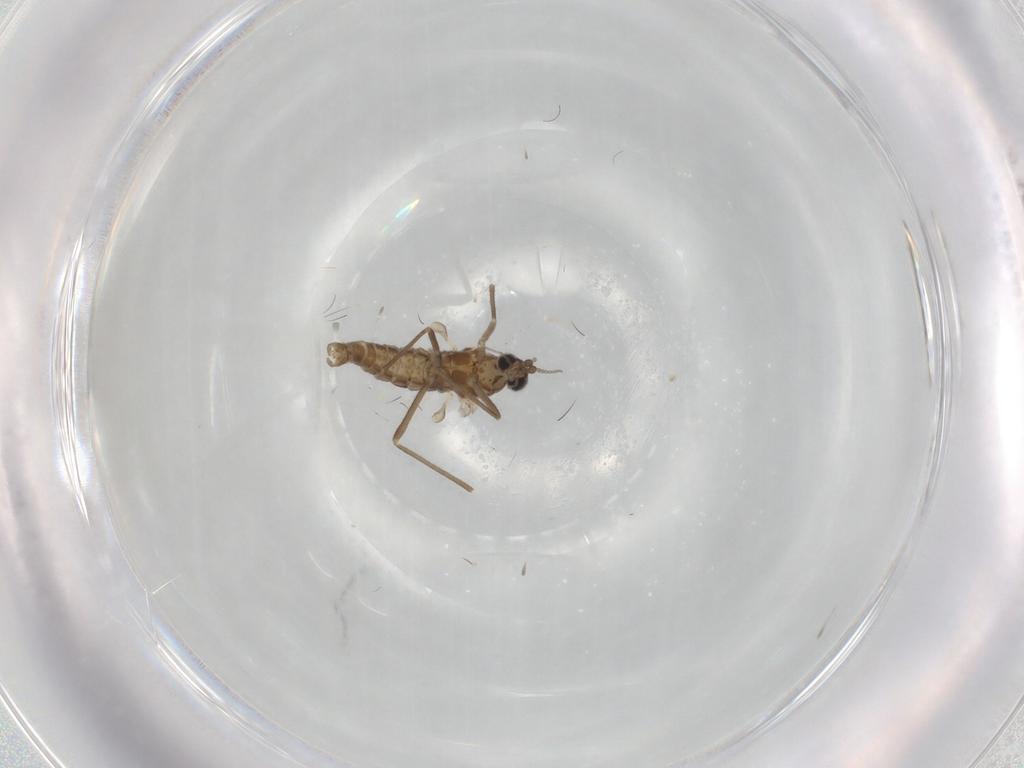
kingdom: Animalia
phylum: Arthropoda
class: Insecta
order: Diptera
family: Cecidomyiidae
